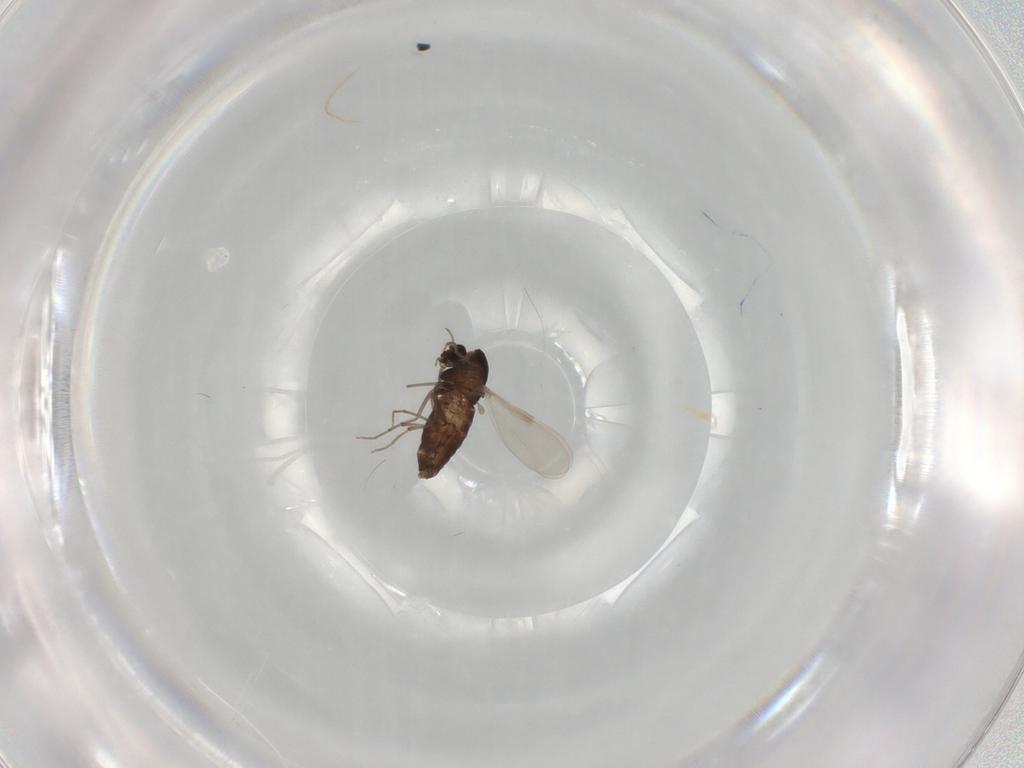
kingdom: Animalia
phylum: Arthropoda
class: Insecta
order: Diptera
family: Chironomidae
